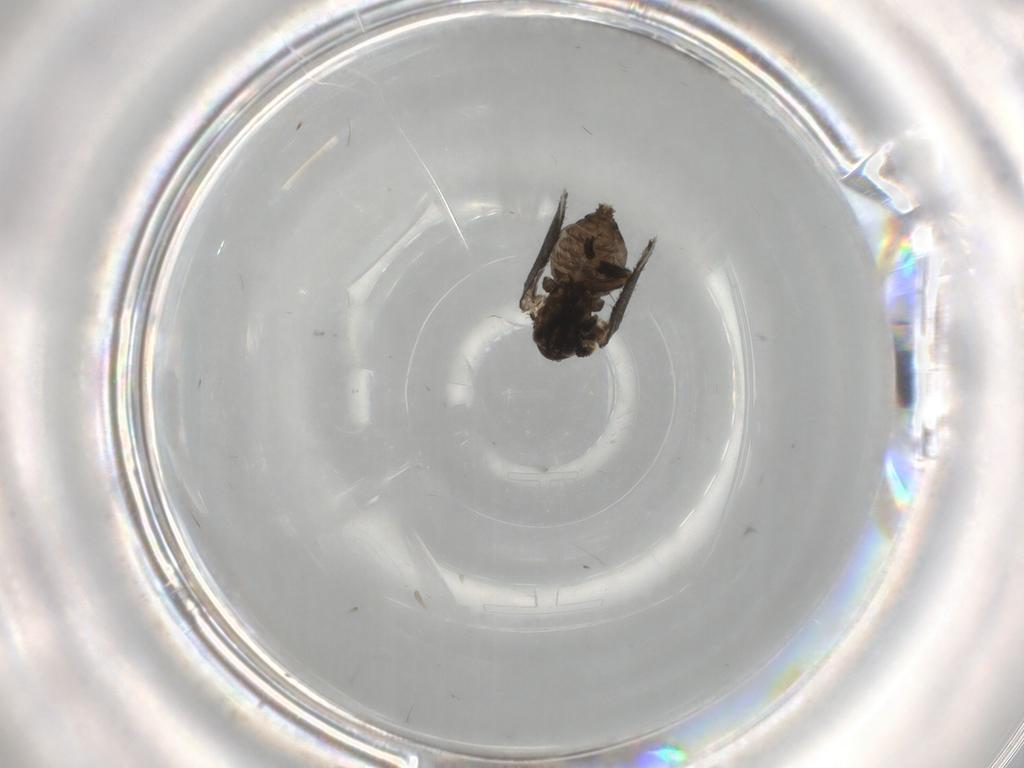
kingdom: Animalia
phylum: Arthropoda
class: Insecta
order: Diptera
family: Psychodidae
